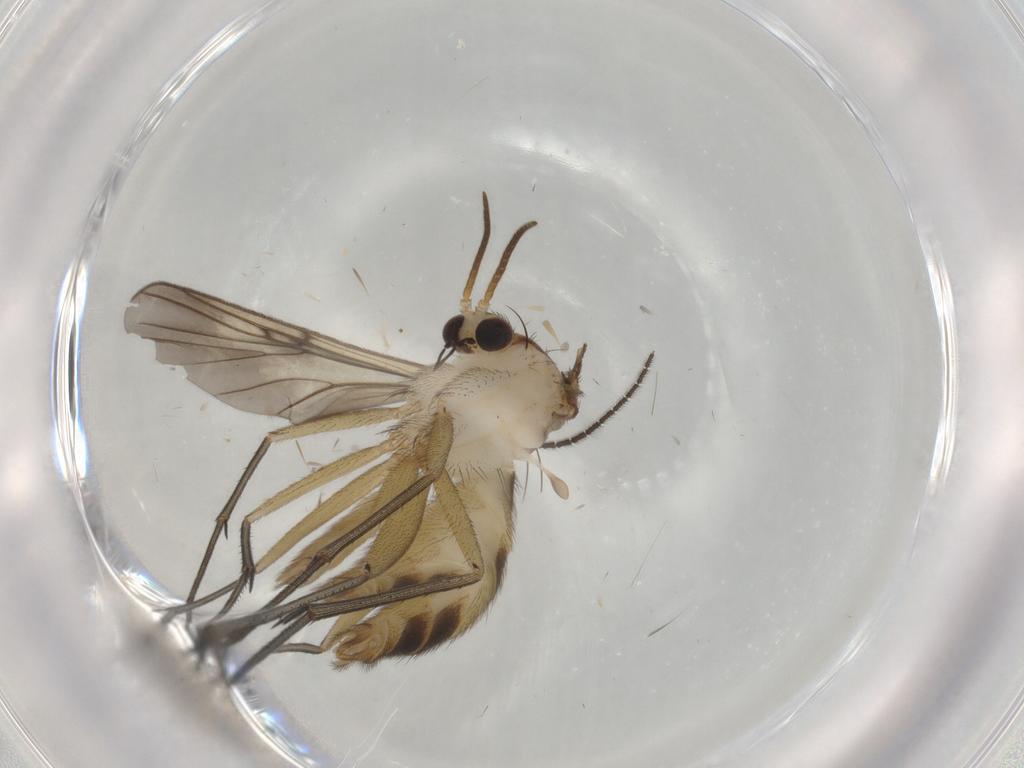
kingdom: Animalia
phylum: Arthropoda
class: Insecta
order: Diptera
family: Mycetophilidae
